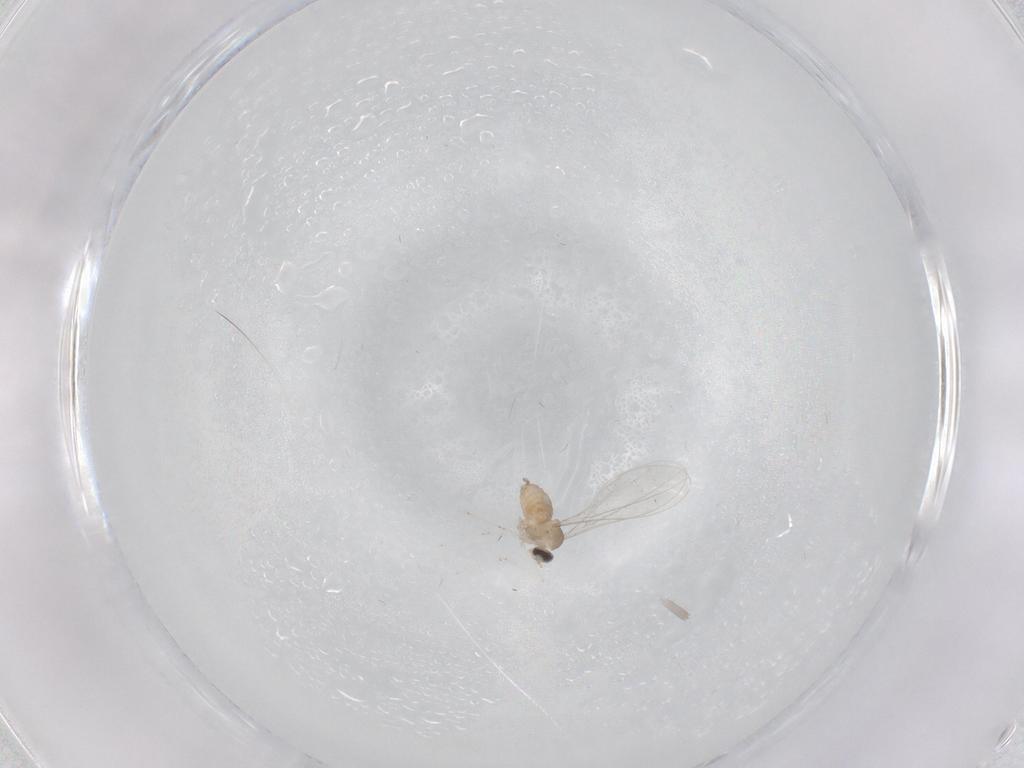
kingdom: Animalia
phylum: Arthropoda
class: Insecta
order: Diptera
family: Cecidomyiidae
